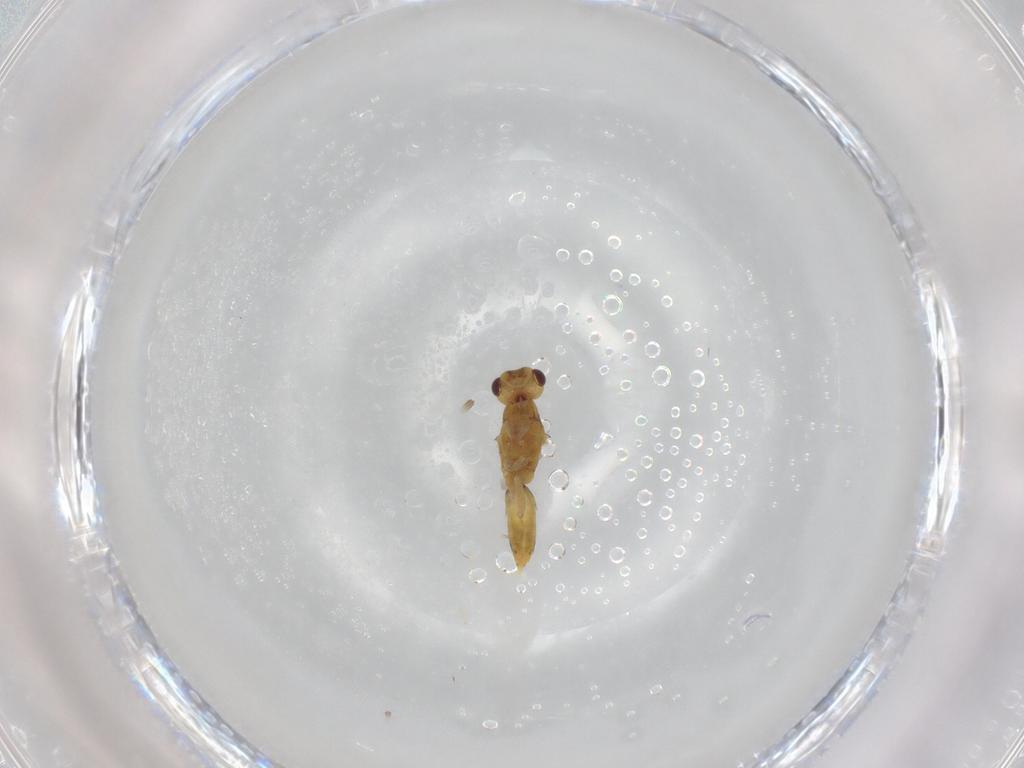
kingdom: Animalia
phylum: Arthropoda
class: Insecta
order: Hymenoptera
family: Eulophidae
